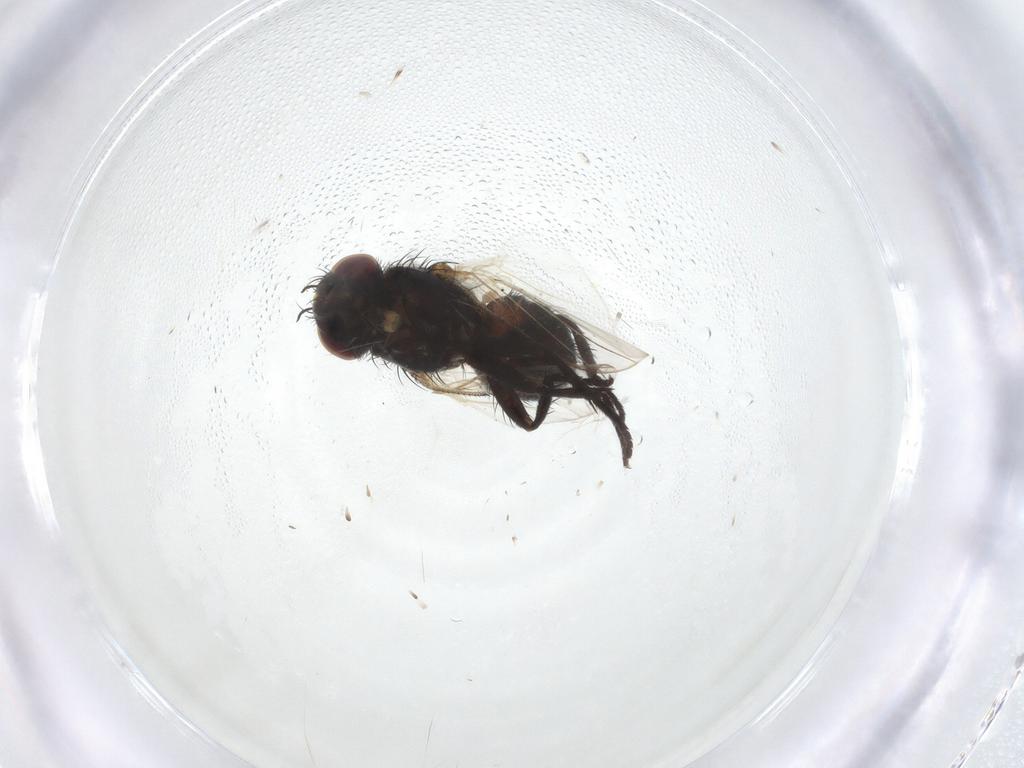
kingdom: Animalia
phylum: Arthropoda
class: Insecta
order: Diptera
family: Tachinidae
